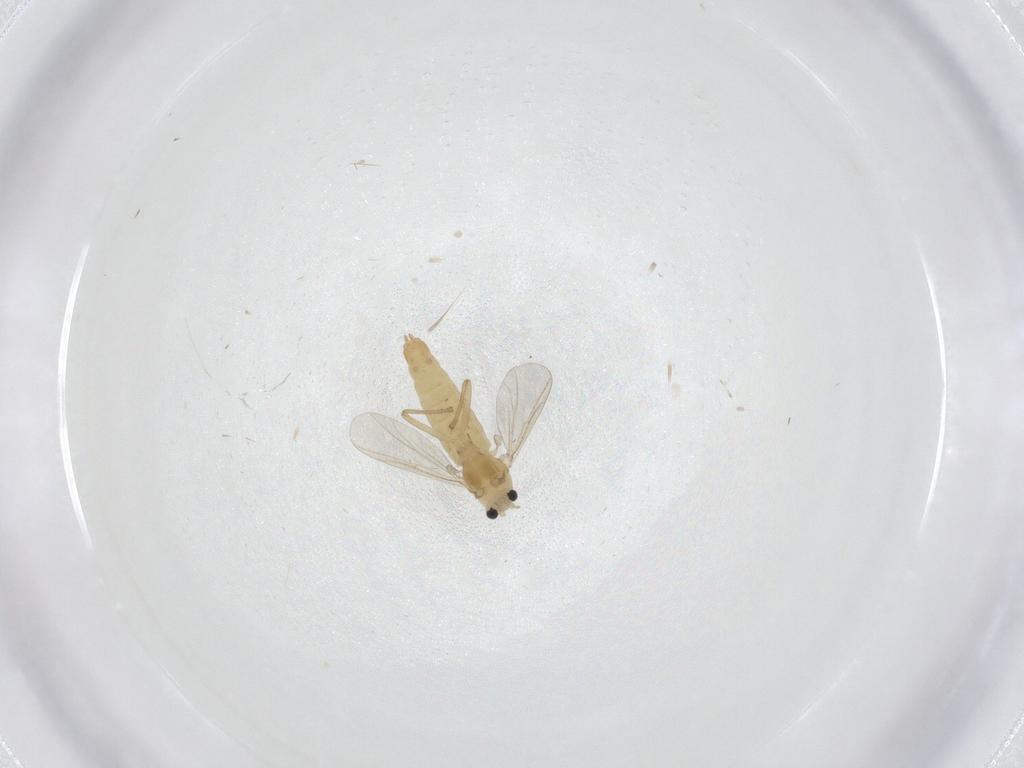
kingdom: Animalia
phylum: Arthropoda
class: Insecta
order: Diptera
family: Chironomidae
